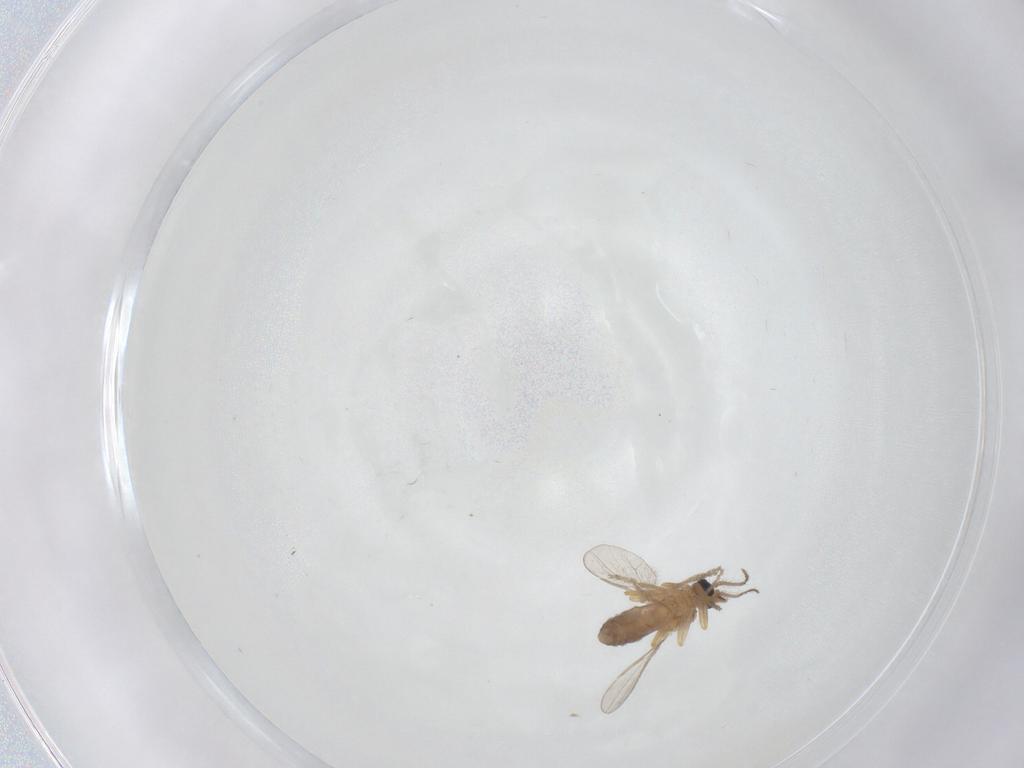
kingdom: Animalia
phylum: Arthropoda
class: Insecta
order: Diptera
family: Ceratopogonidae
